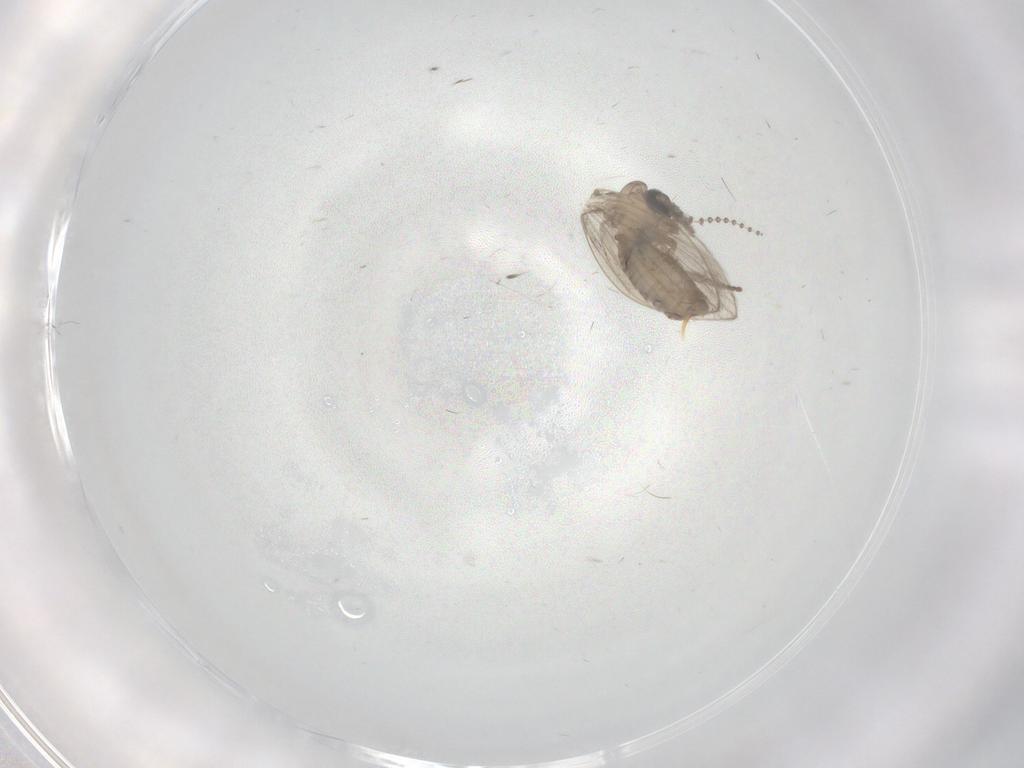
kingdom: Animalia
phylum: Arthropoda
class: Insecta
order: Diptera
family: Psychodidae
